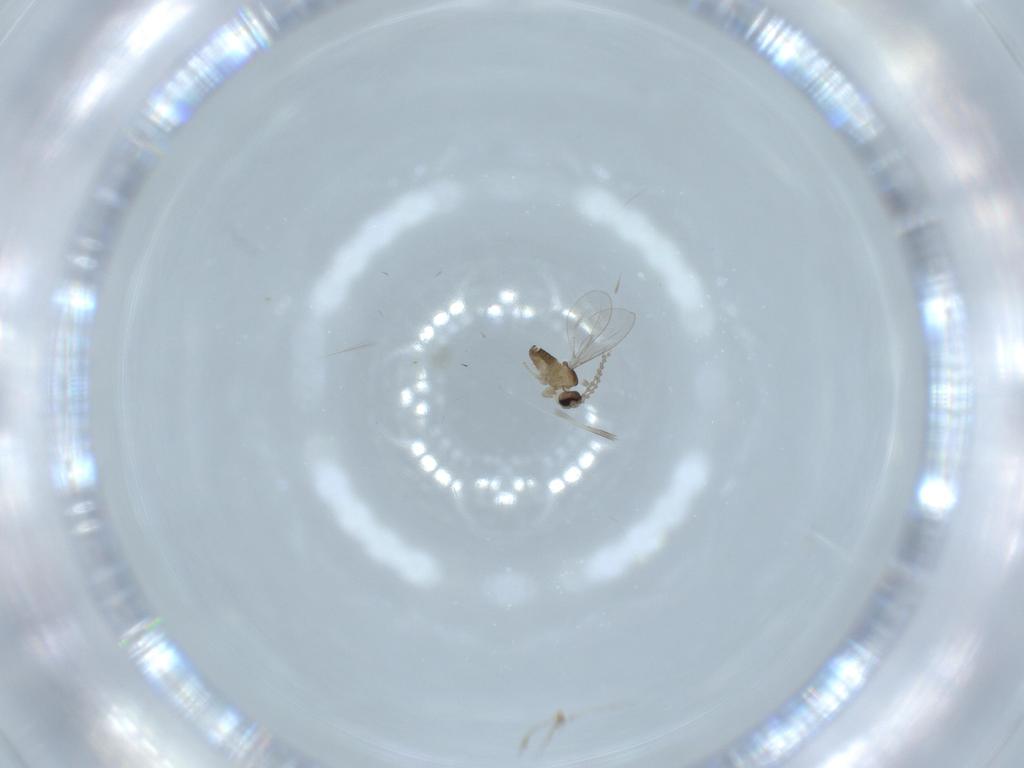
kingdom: Animalia
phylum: Arthropoda
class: Insecta
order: Diptera
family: Chironomidae
